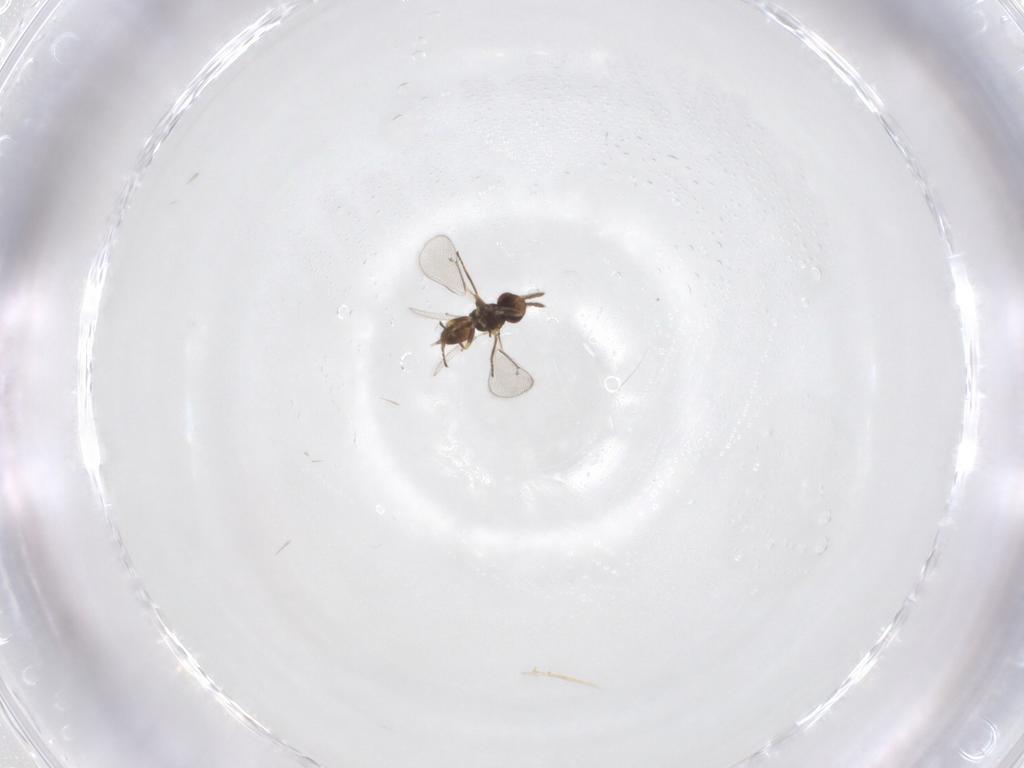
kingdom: Animalia
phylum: Arthropoda
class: Insecta
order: Hymenoptera
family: Eulophidae
